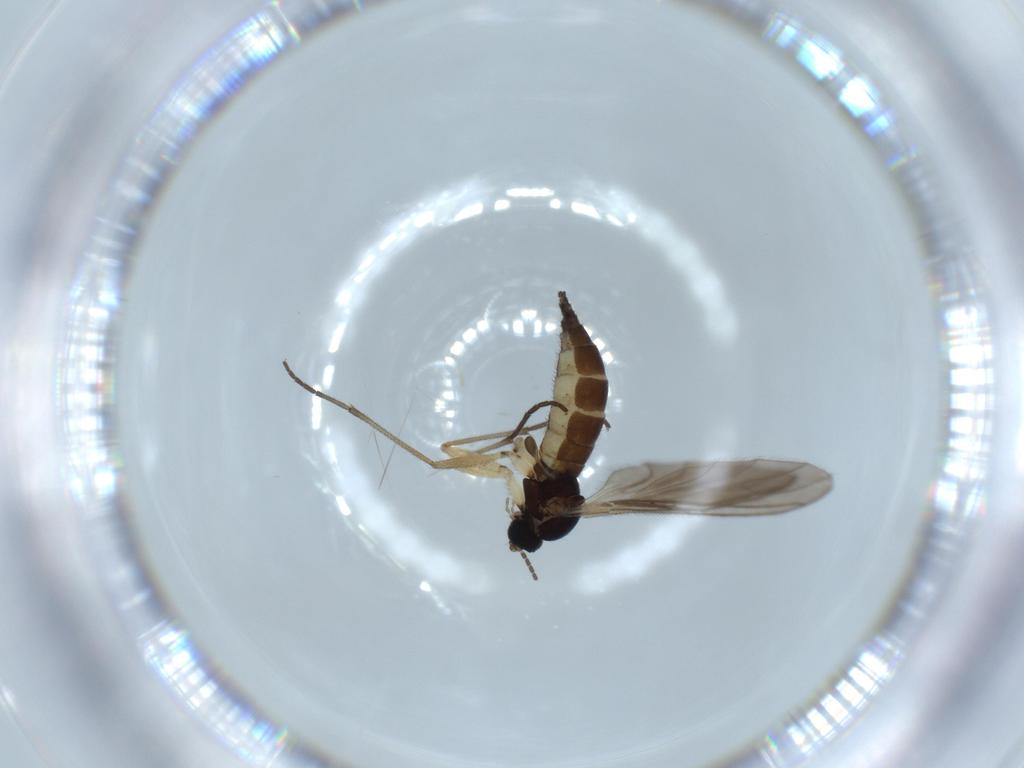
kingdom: Animalia
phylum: Arthropoda
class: Insecta
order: Diptera
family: Sciaridae
